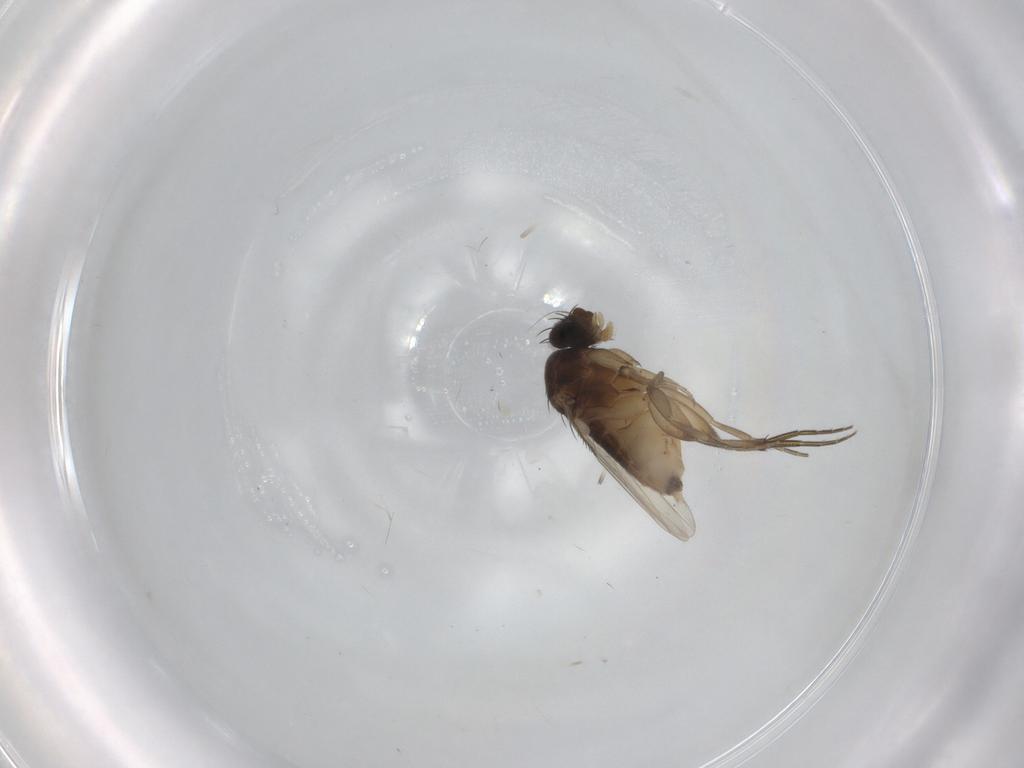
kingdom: Animalia
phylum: Arthropoda
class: Insecta
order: Diptera
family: Phoridae
